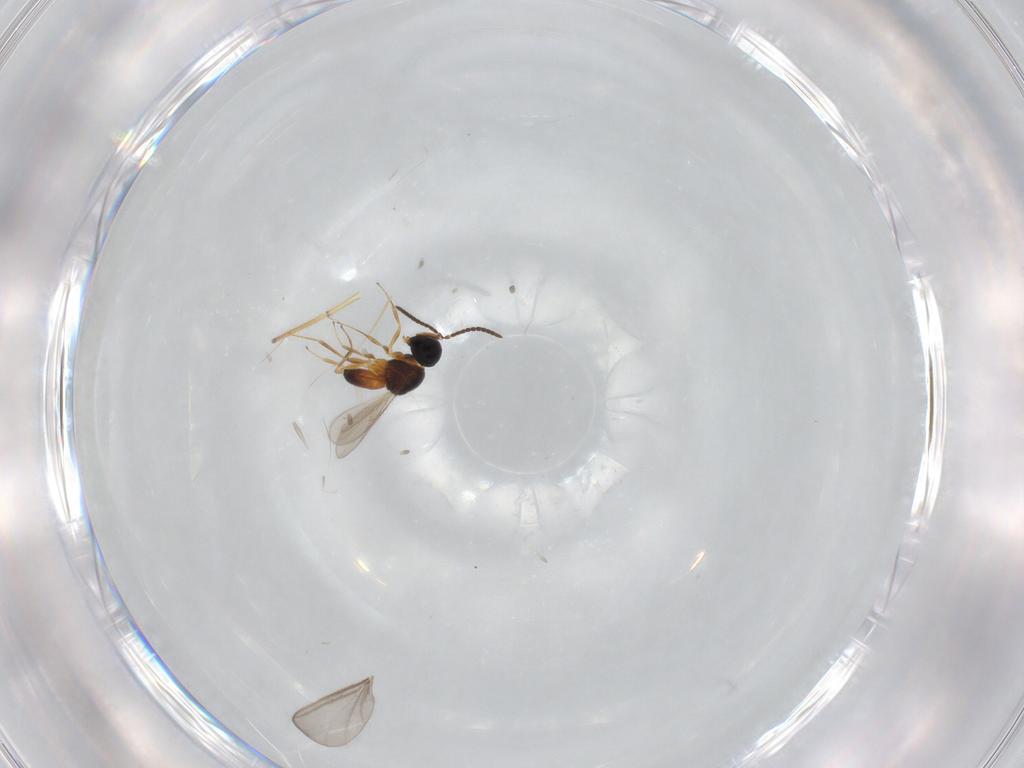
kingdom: Animalia
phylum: Arthropoda
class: Insecta
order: Hymenoptera
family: Scelionidae
